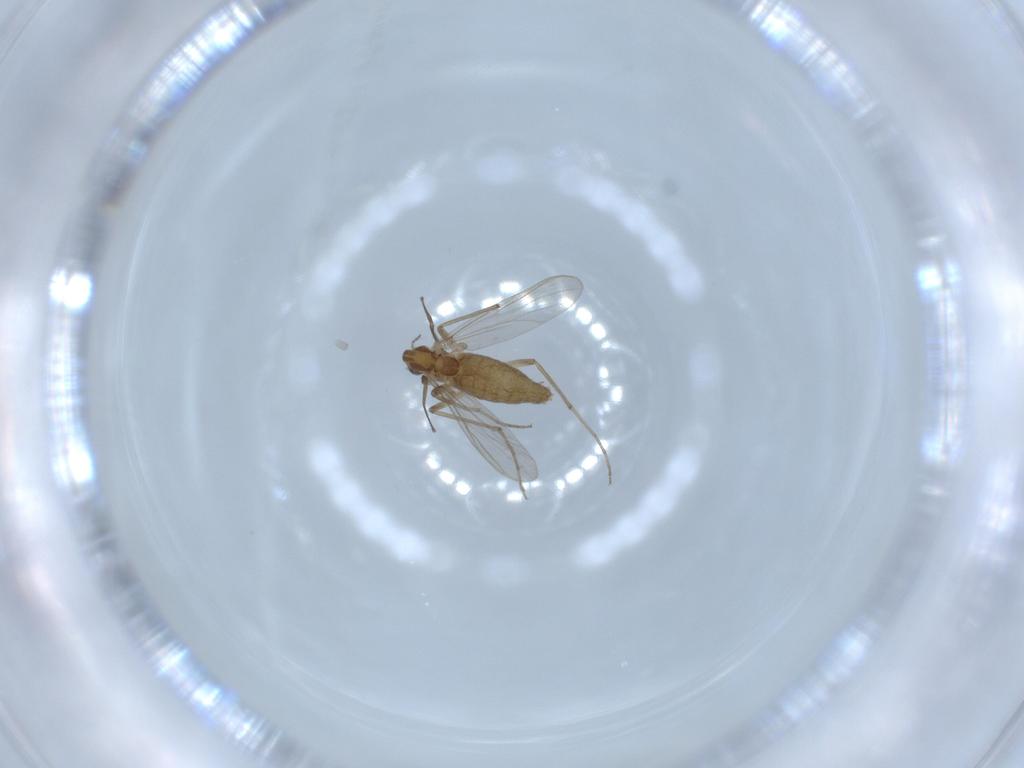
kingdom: Animalia
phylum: Arthropoda
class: Insecta
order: Diptera
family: Chironomidae
